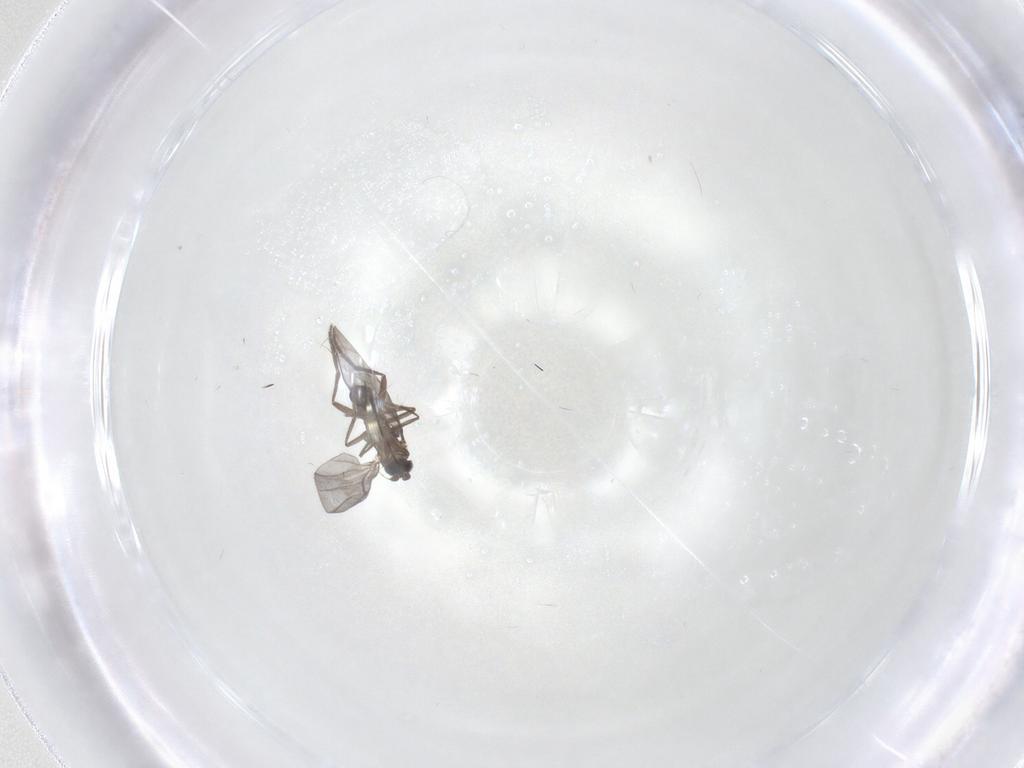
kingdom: Animalia
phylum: Arthropoda
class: Insecta
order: Diptera
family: Phoridae
